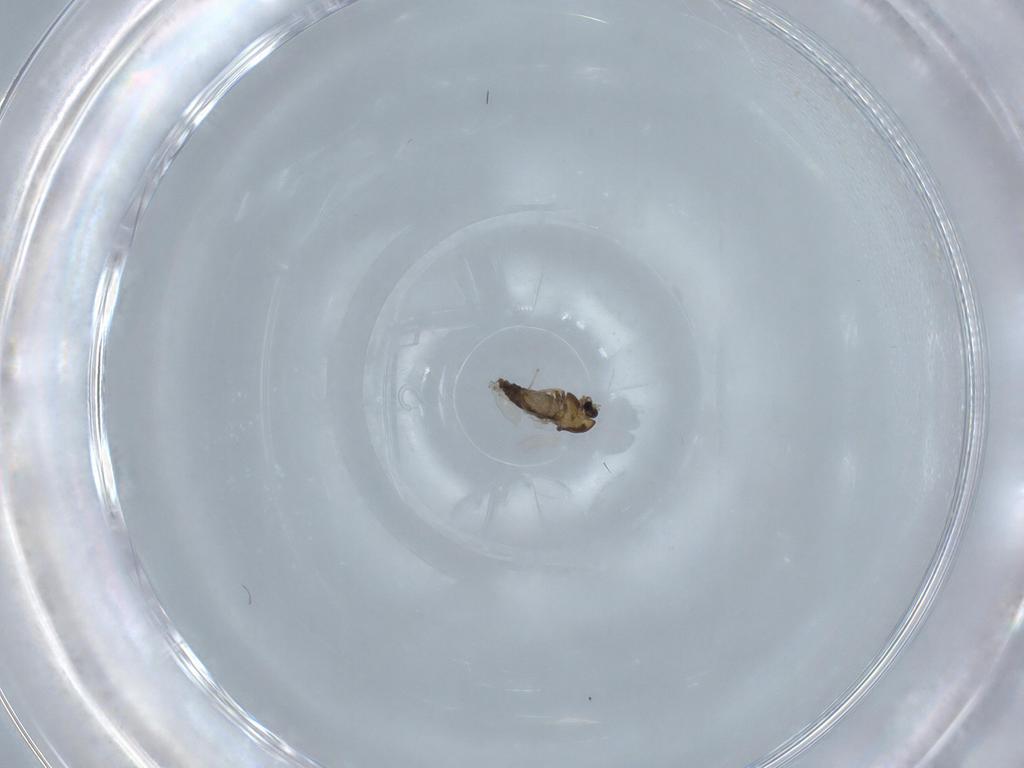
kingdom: Animalia
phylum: Arthropoda
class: Insecta
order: Diptera
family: Chironomidae
